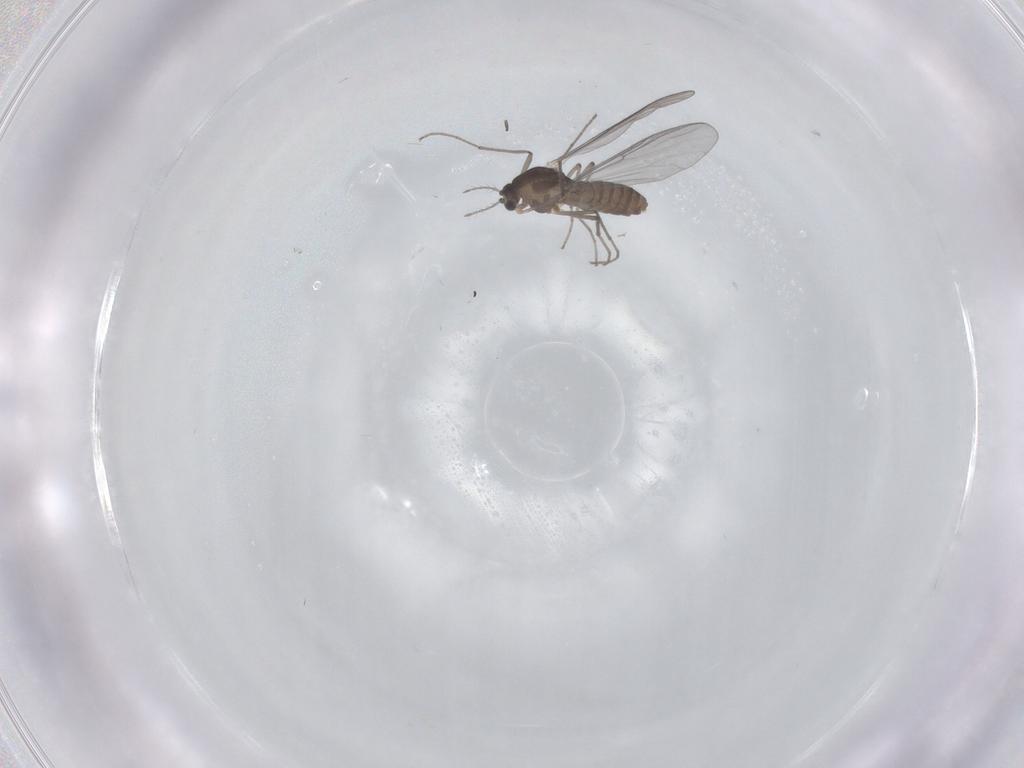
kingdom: Animalia
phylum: Arthropoda
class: Insecta
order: Diptera
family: Chironomidae
